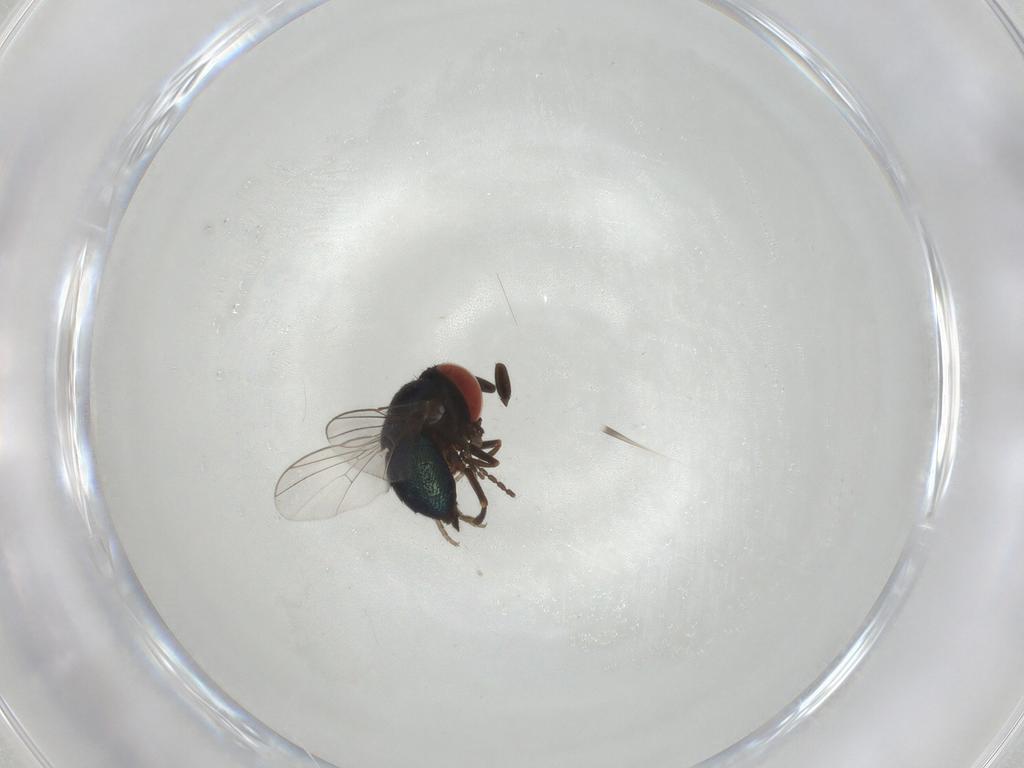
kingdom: Animalia
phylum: Arthropoda
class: Insecta
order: Diptera
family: Cryptochetidae
